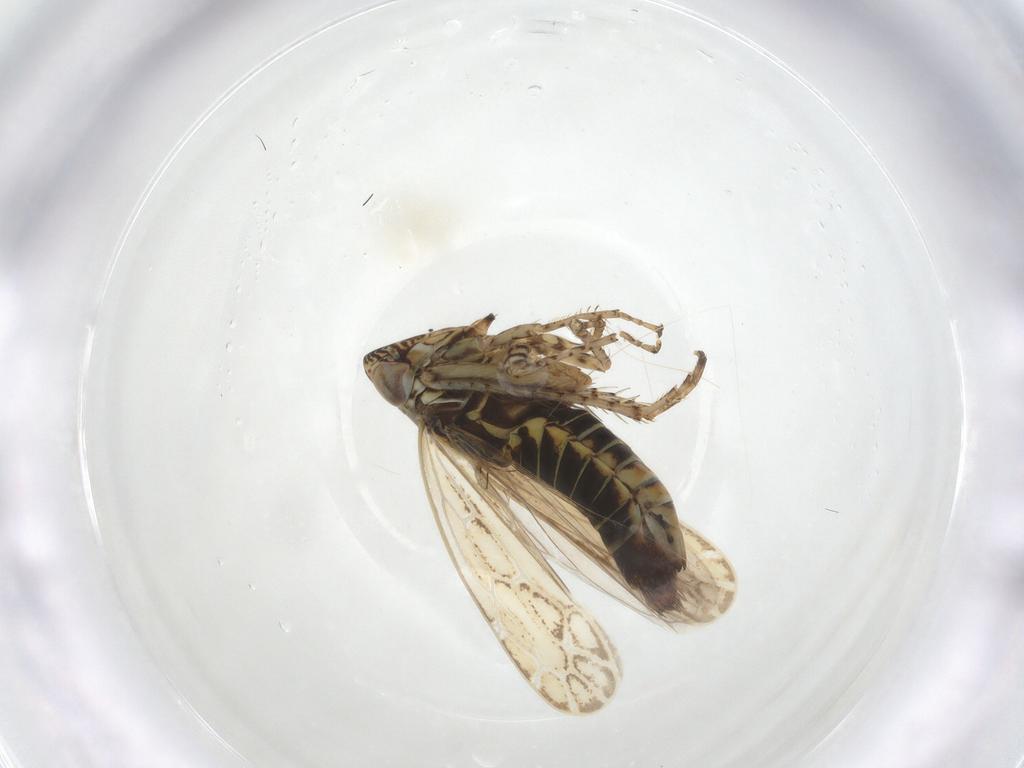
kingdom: Animalia
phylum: Arthropoda
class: Insecta
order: Hemiptera
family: Cicadellidae
